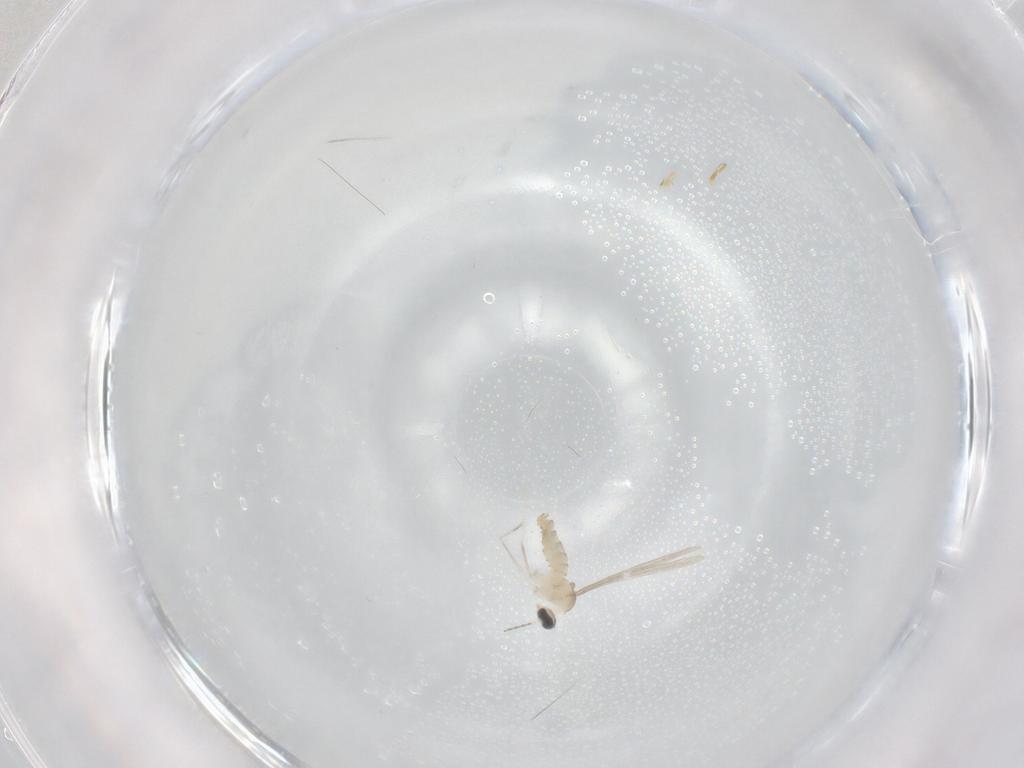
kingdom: Animalia
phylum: Arthropoda
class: Insecta
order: Diptera
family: Cecidomyiidae
